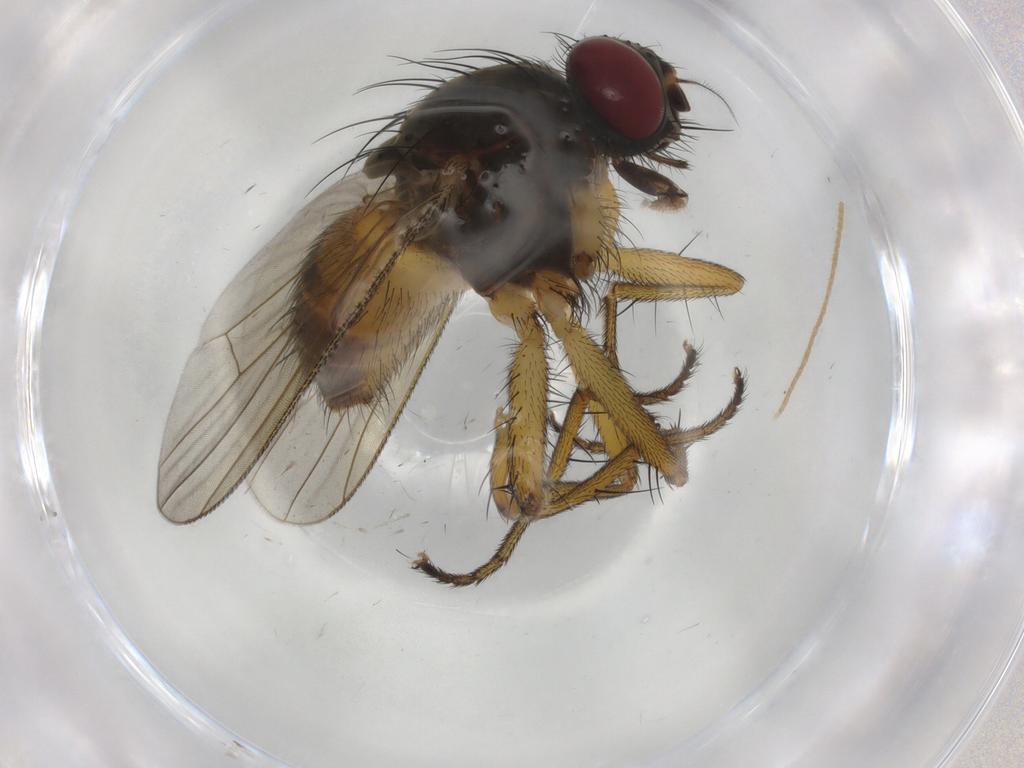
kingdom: Animalia
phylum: Arthropoda
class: Insecta
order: Diptera
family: Muscidae
